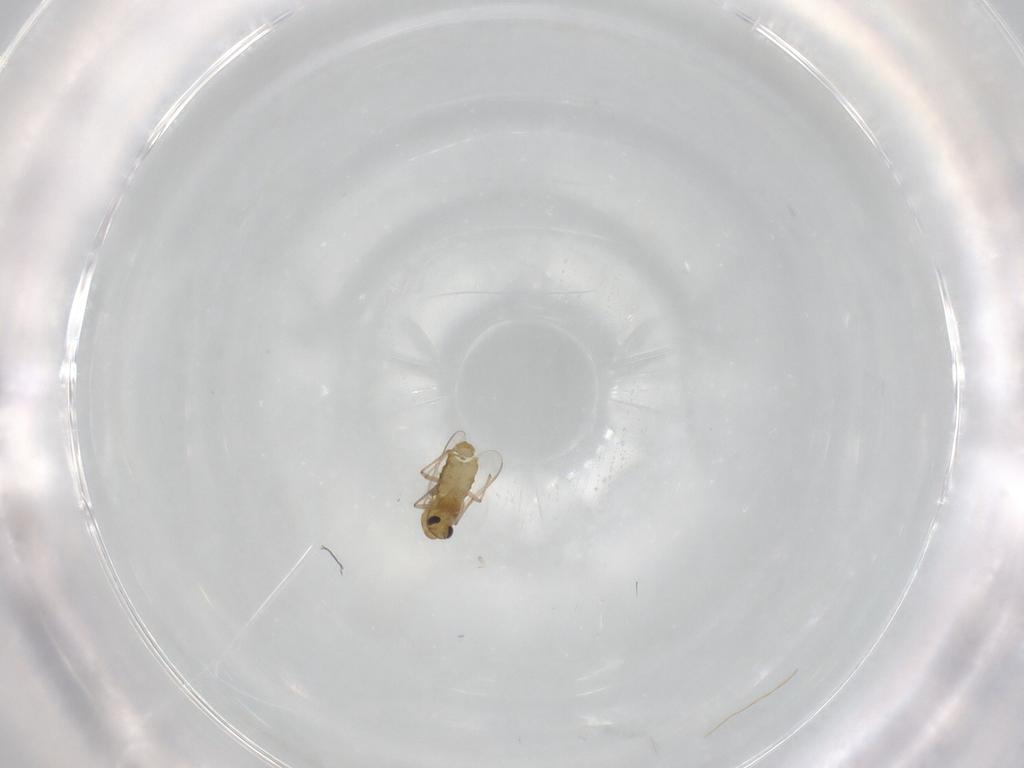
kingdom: Animalia
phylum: Arthropoda
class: Insecta
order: Diptera
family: Chironomidae
